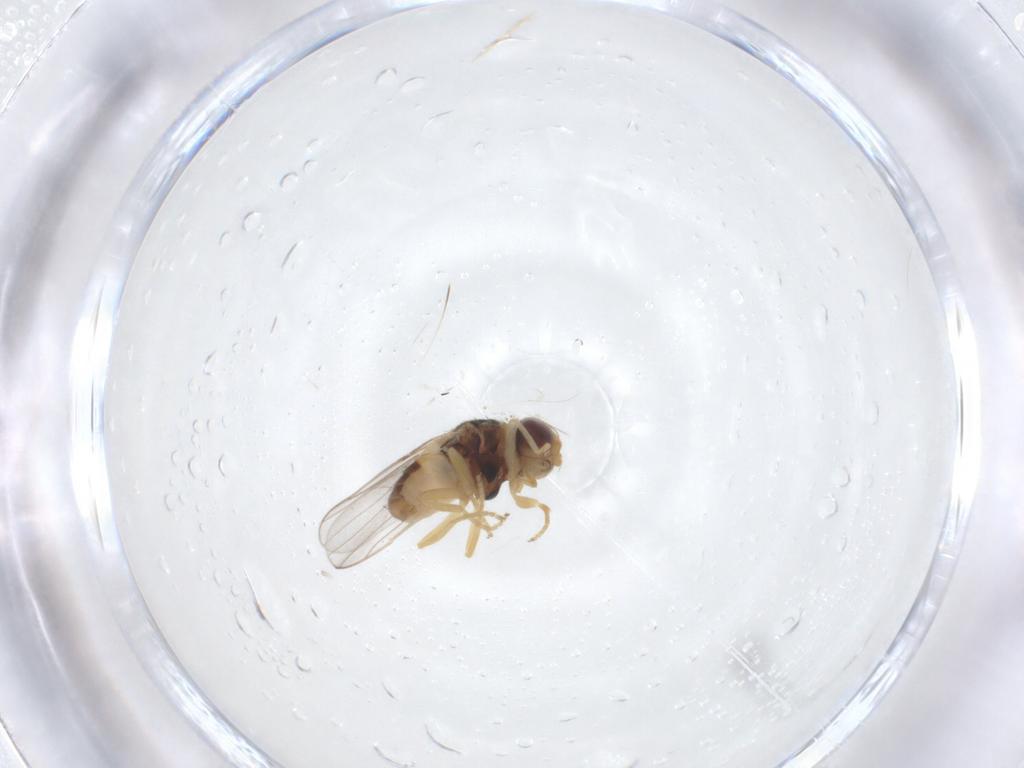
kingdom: Animalia
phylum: Arthropoda
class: Insecta
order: Diptera
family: Chloropidae
